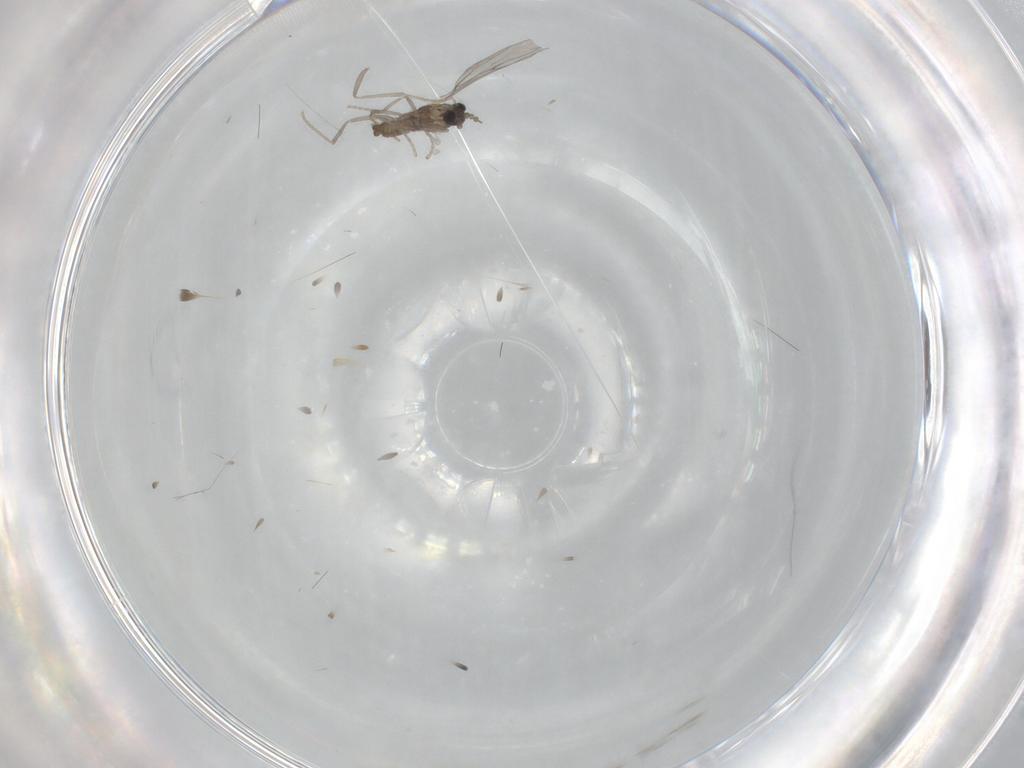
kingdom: Animalia
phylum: Arthropoda
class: Insecta
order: Diptera
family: Cecidomyiidae
